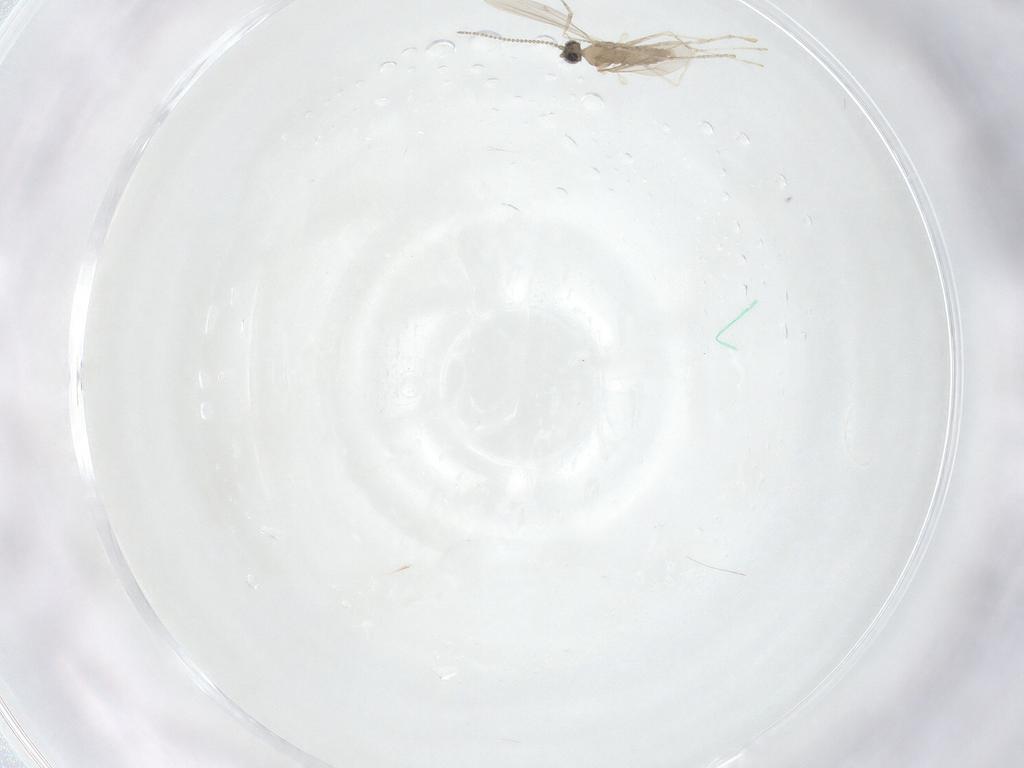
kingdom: Animalia
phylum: Arthropoda
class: Insecta
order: Diptera
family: Cecidomyiidae
